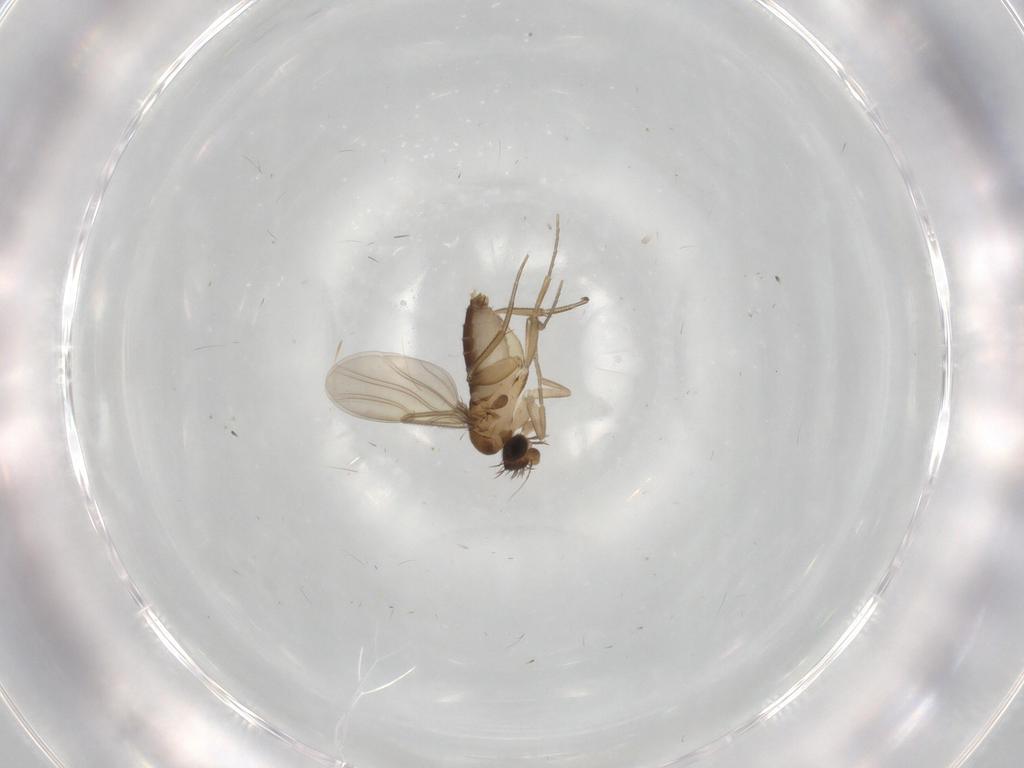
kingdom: Animalia
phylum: Arthropoda
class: Insecta
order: Diptera
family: Phoridae
